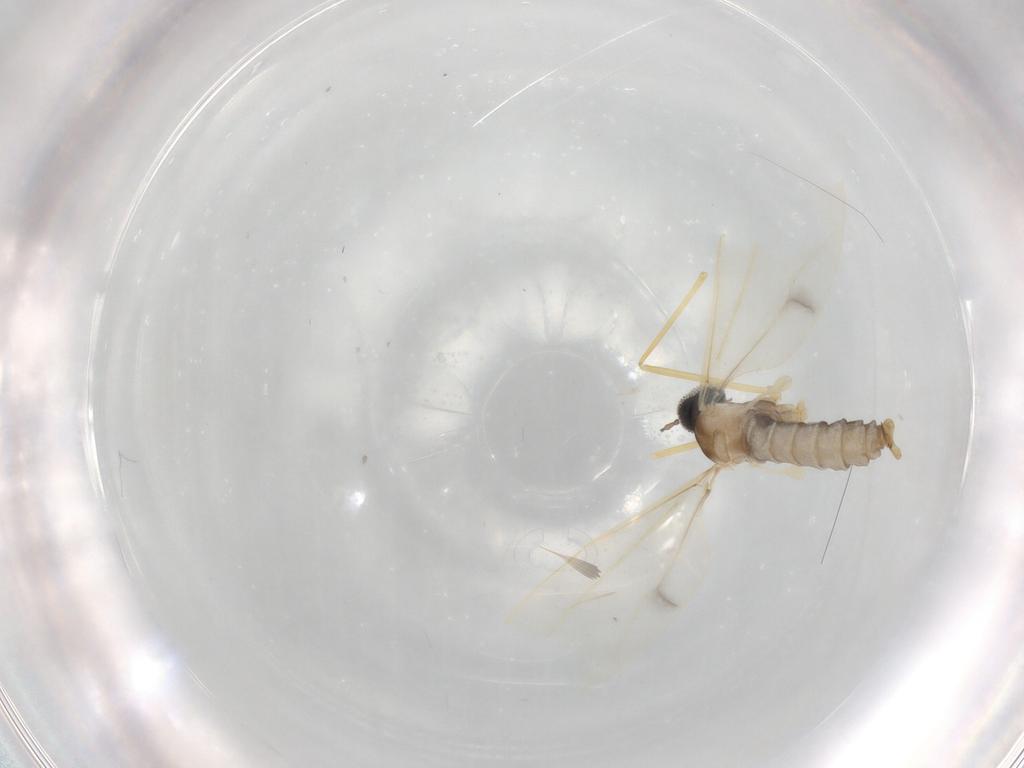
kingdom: Animalia
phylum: Arthropoda
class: Insecta
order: Diptera
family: Cecidomyiidae
